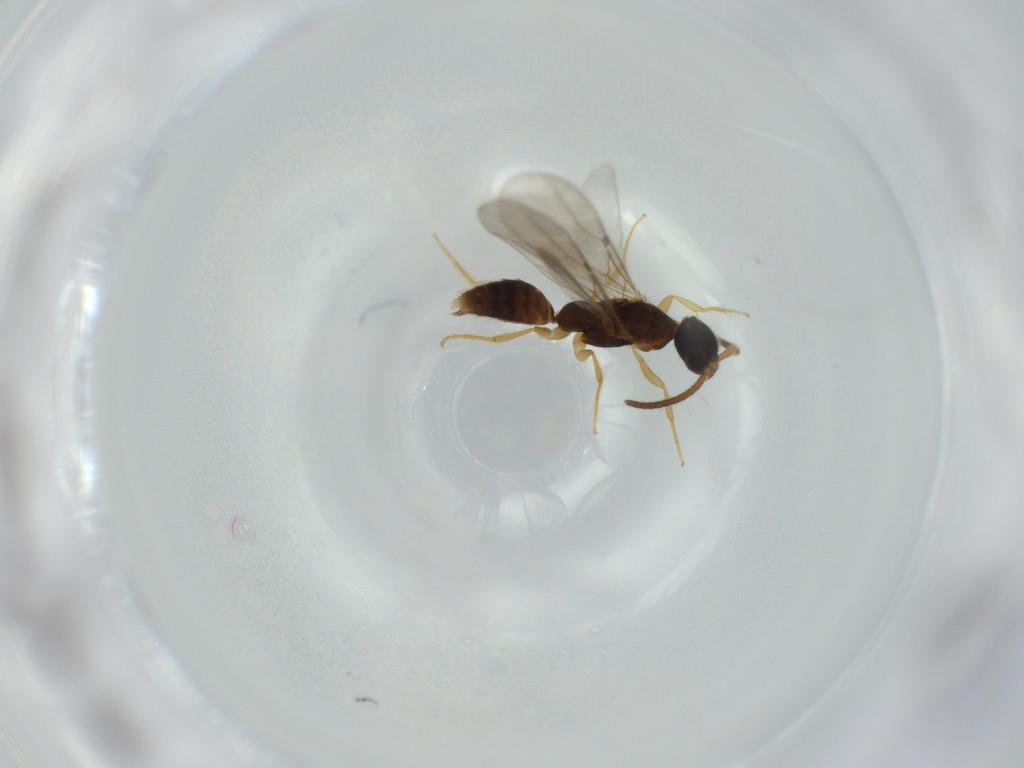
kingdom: Animalia
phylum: Arthropoda
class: Insecta
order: Hymenoptera
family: Bethylidae
